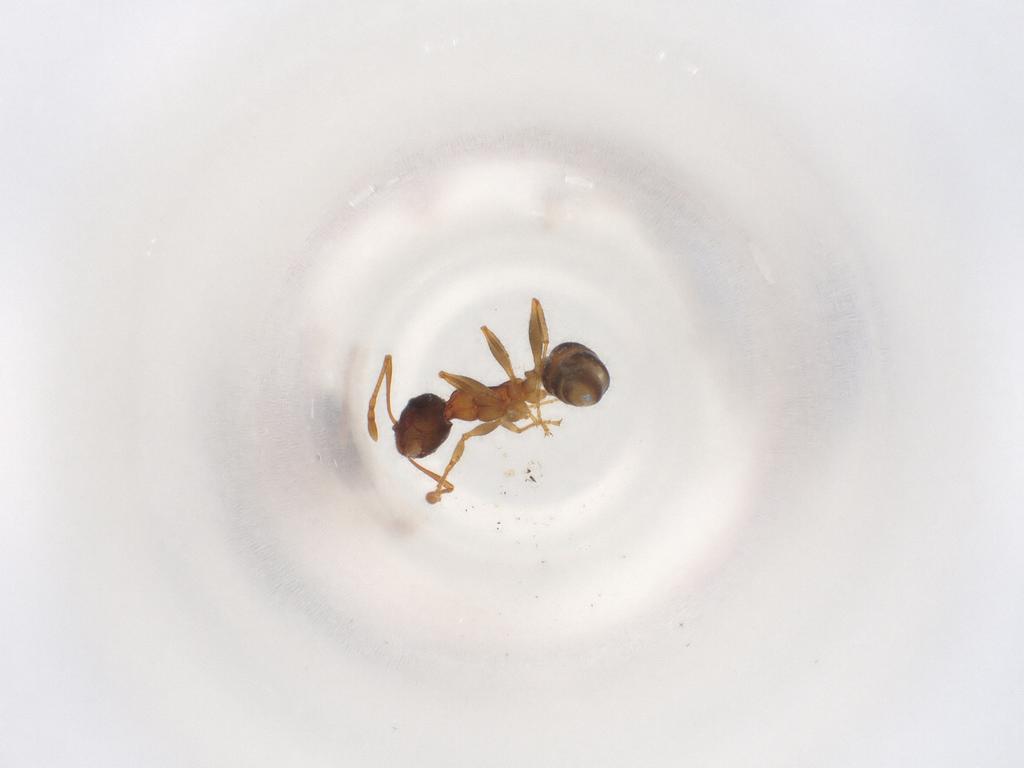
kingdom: Animalia
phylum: Arthropoda
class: Insecta
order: Hymenoptera
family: Formicidae
